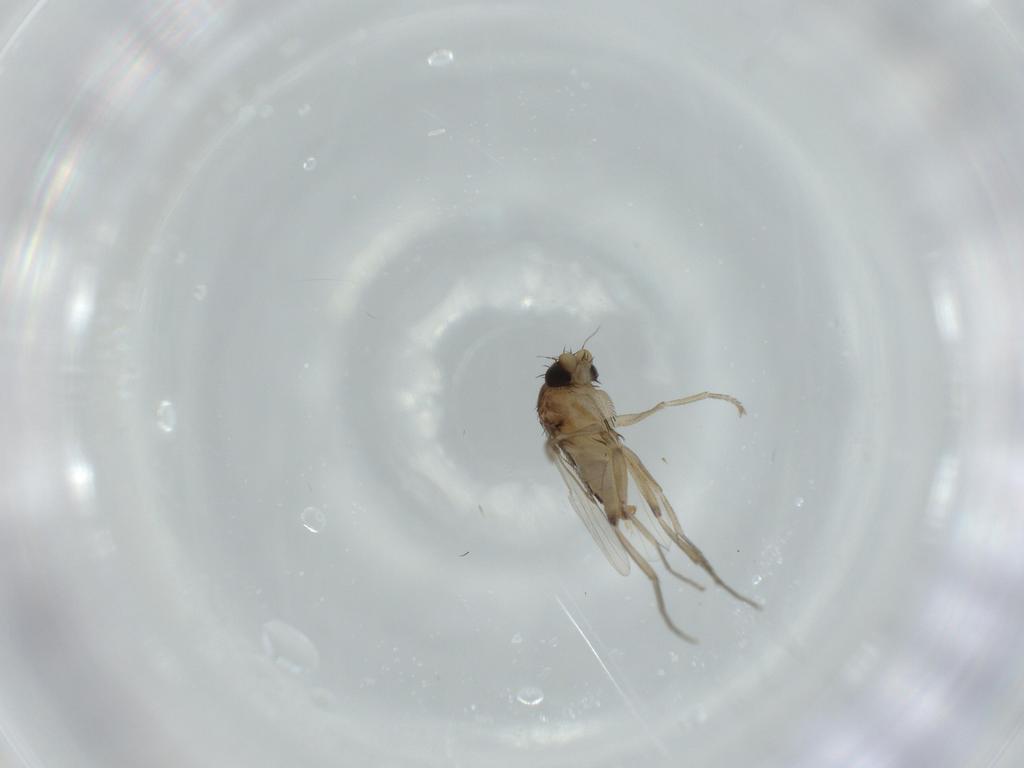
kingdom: Animalia
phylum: Arthropoda
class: Insecta
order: Diptera
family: Phoridae
